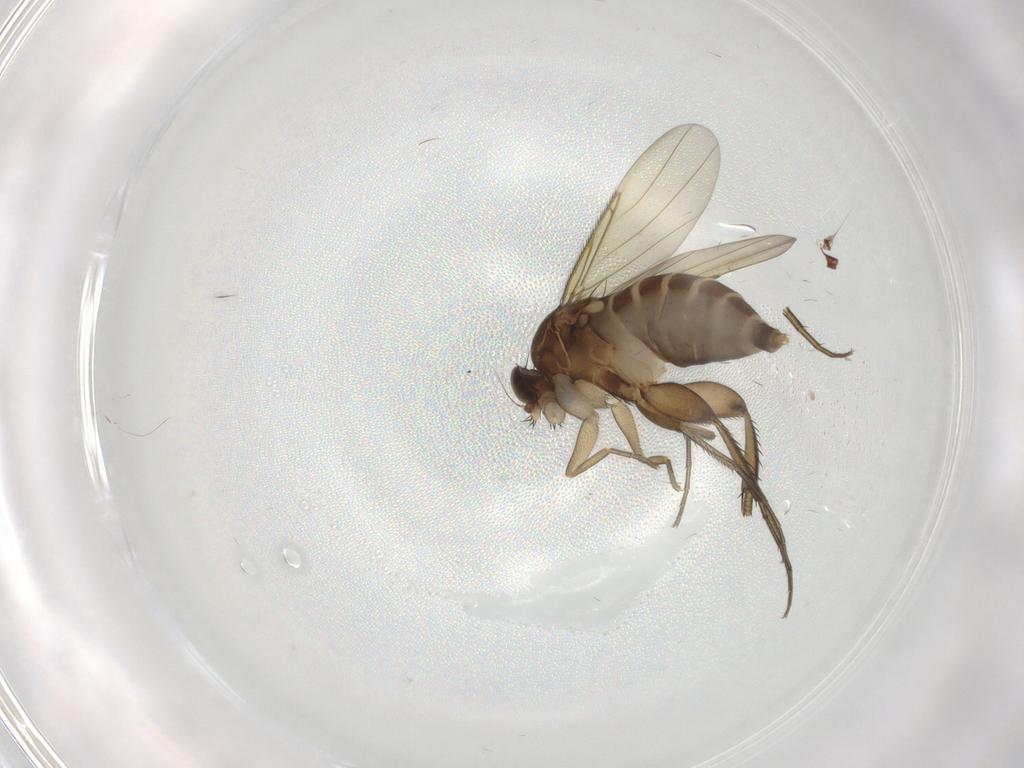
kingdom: Animalia
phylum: Arthropoda
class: Insecta
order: Diptera
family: Phoridae
